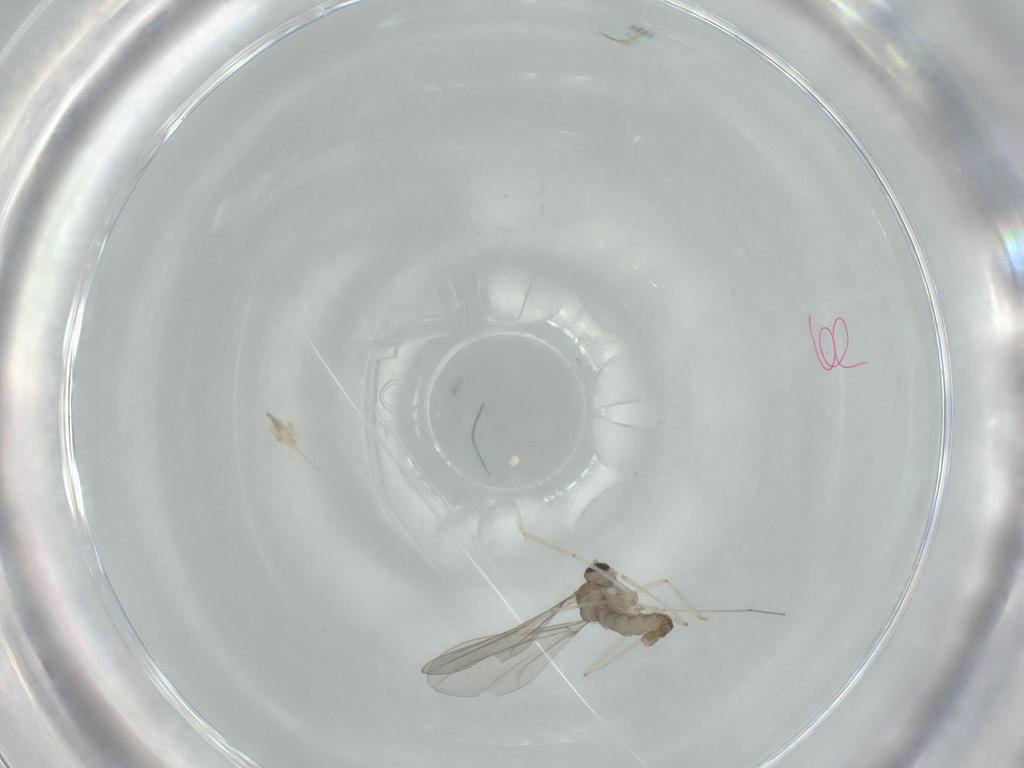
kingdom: Animalia
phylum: Arthropoda
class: Insecta
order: Diptera
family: Cecidomyiidae
